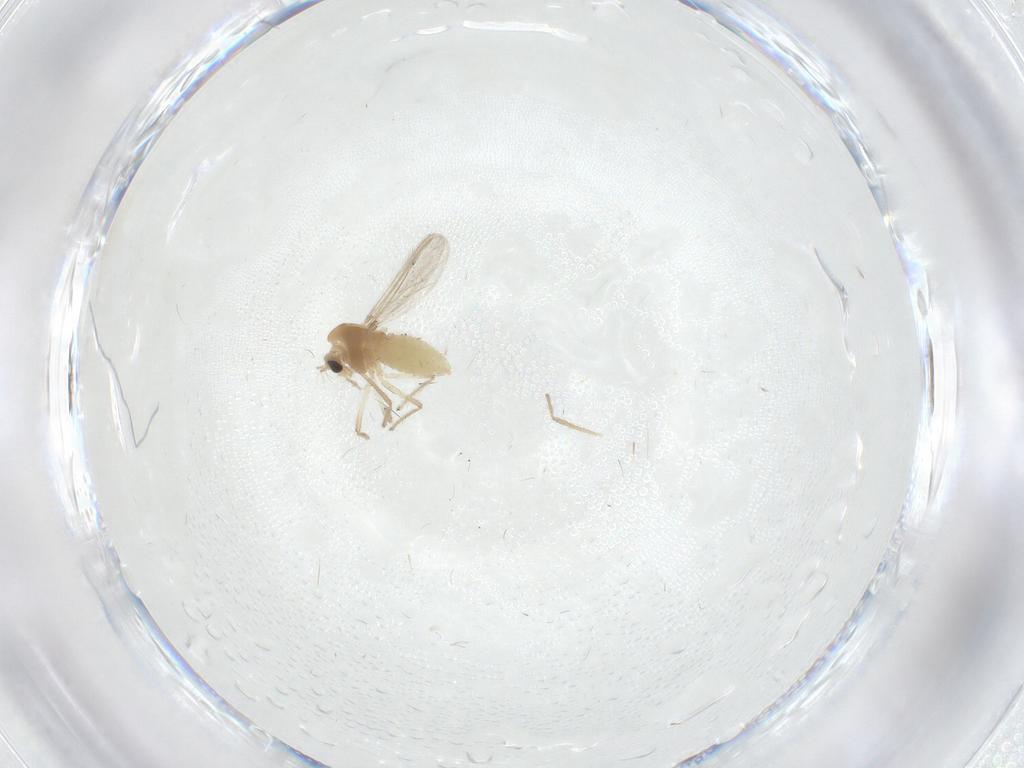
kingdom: Animalia
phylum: Arthropoda
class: Insecta
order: Diptera
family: Chironomidae
